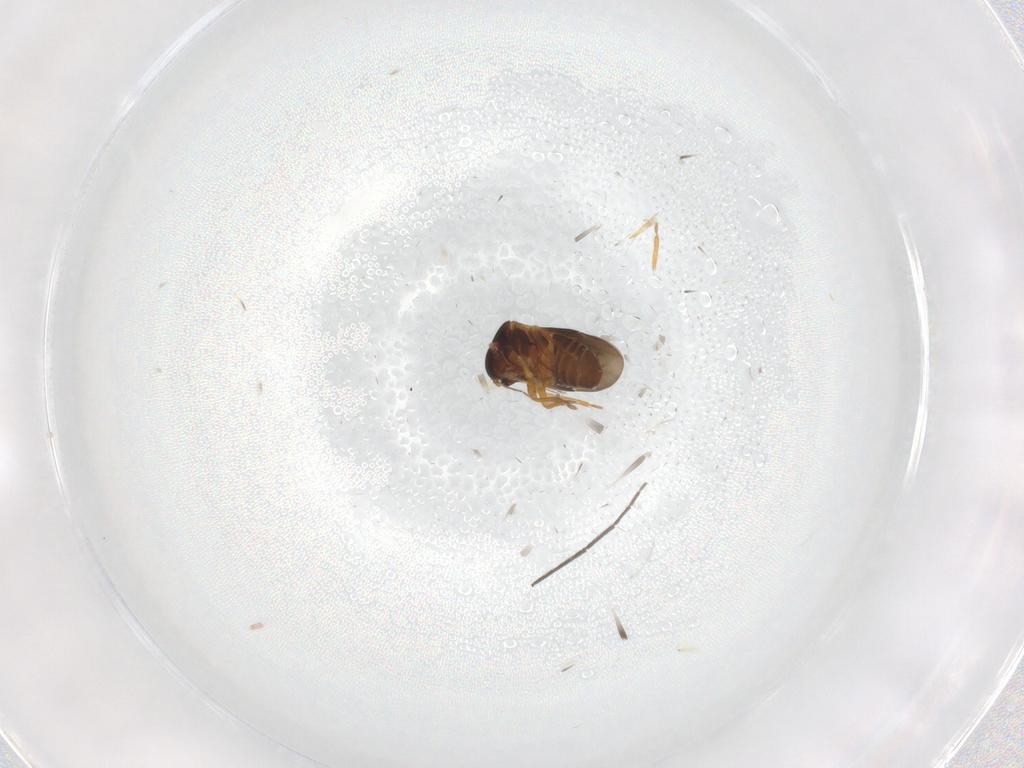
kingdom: Animalia
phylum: Arthropoda
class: Insecta
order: Hemiptera
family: Schizopteridae
